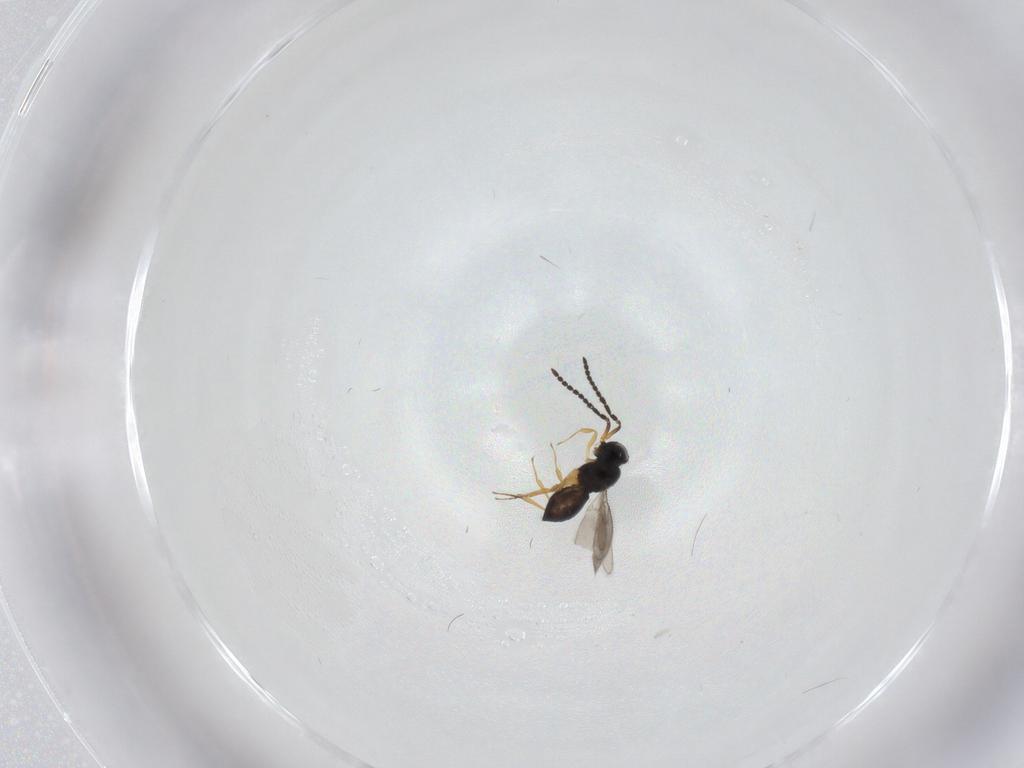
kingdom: Animalia
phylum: Arthropoda
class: Insecta
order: Hymenoptera
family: Scelionidae
